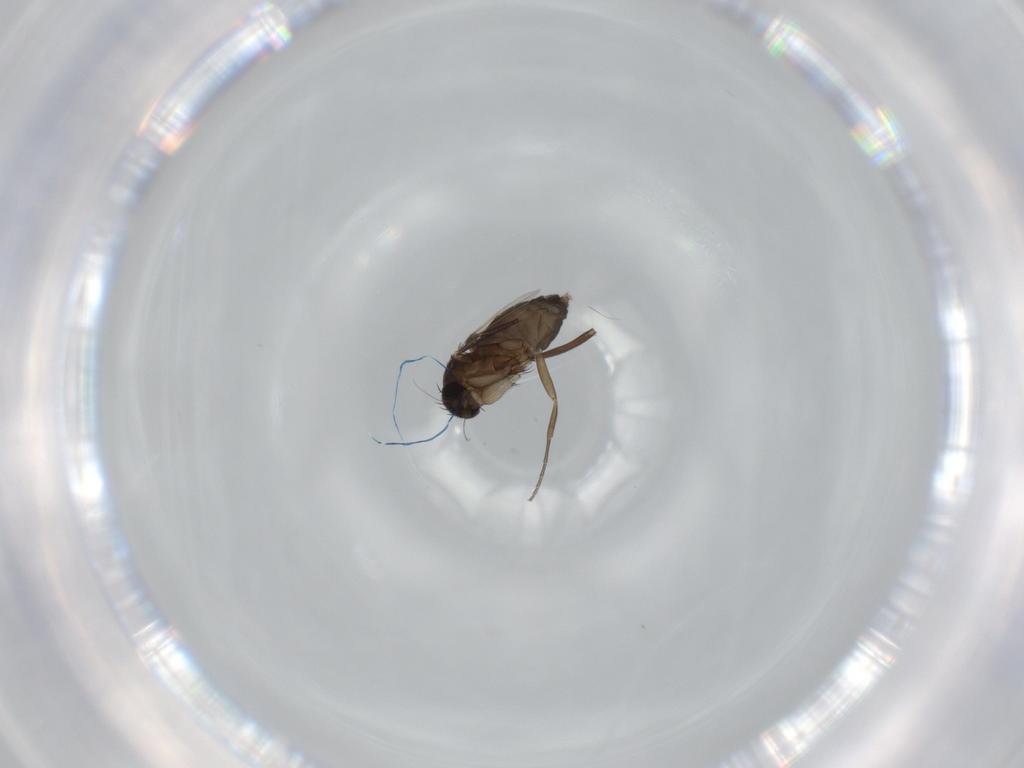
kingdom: Animalia
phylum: Arthropoda
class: Insecta
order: Diptera
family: Phoridae
